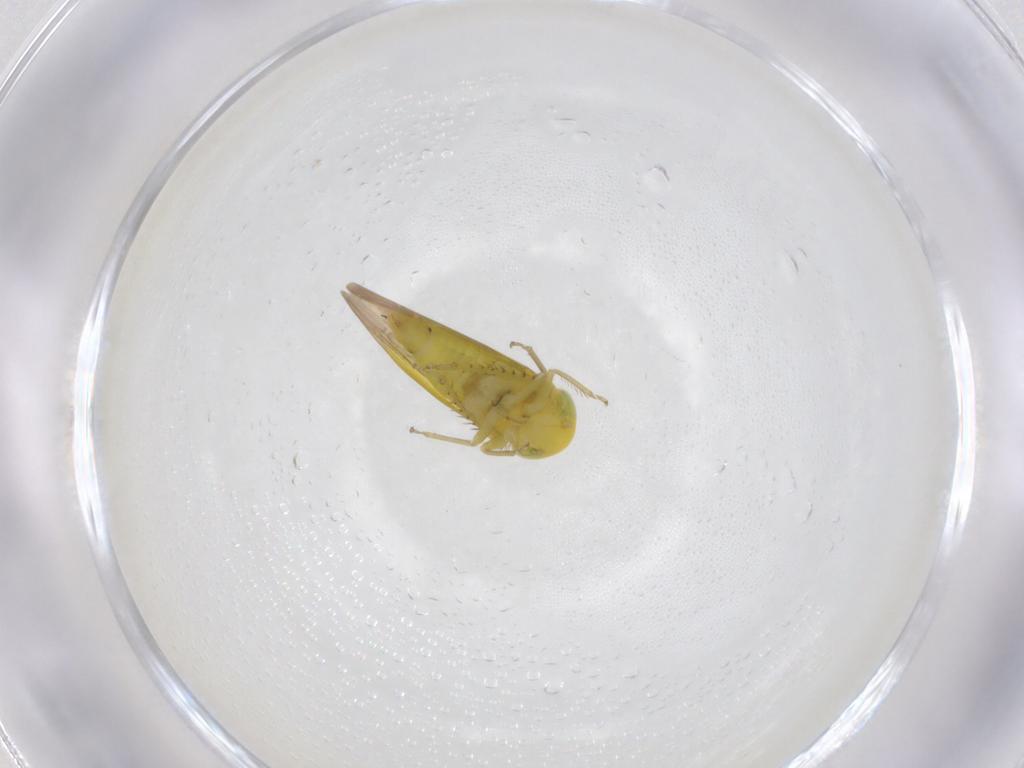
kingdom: Animalia
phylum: Arthropoda
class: Insecta
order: Hemiptera
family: Cicadellidae
